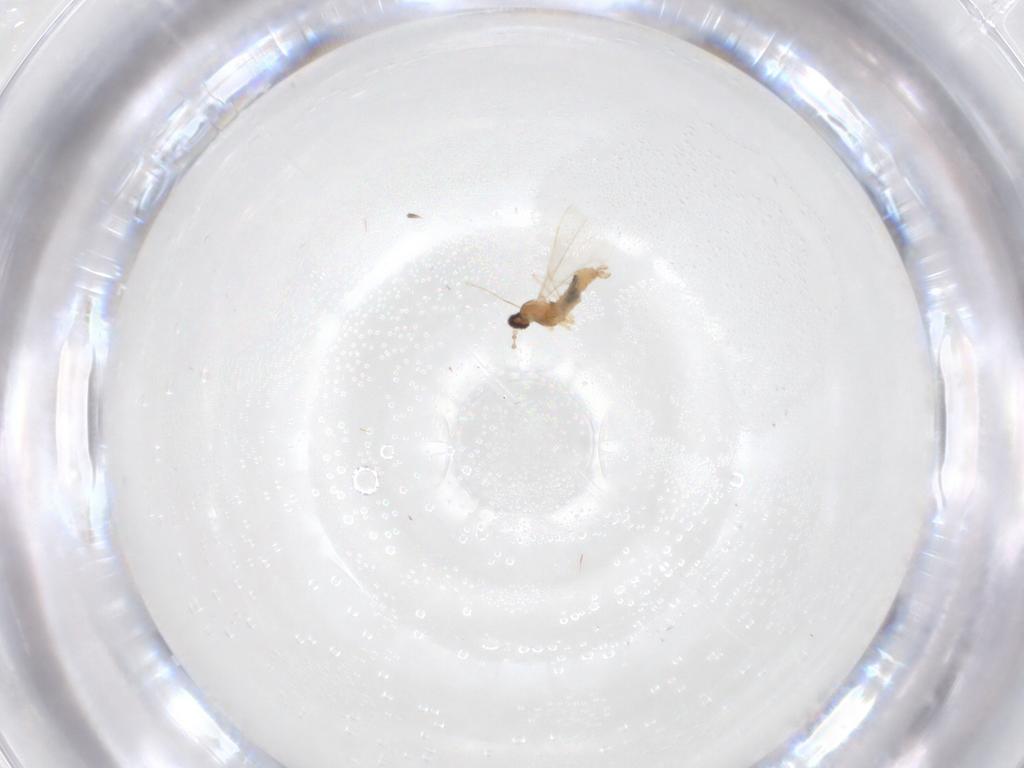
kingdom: Animalia
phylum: Arthropoda
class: Insecta
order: Diptera
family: Cecidomyiidae
